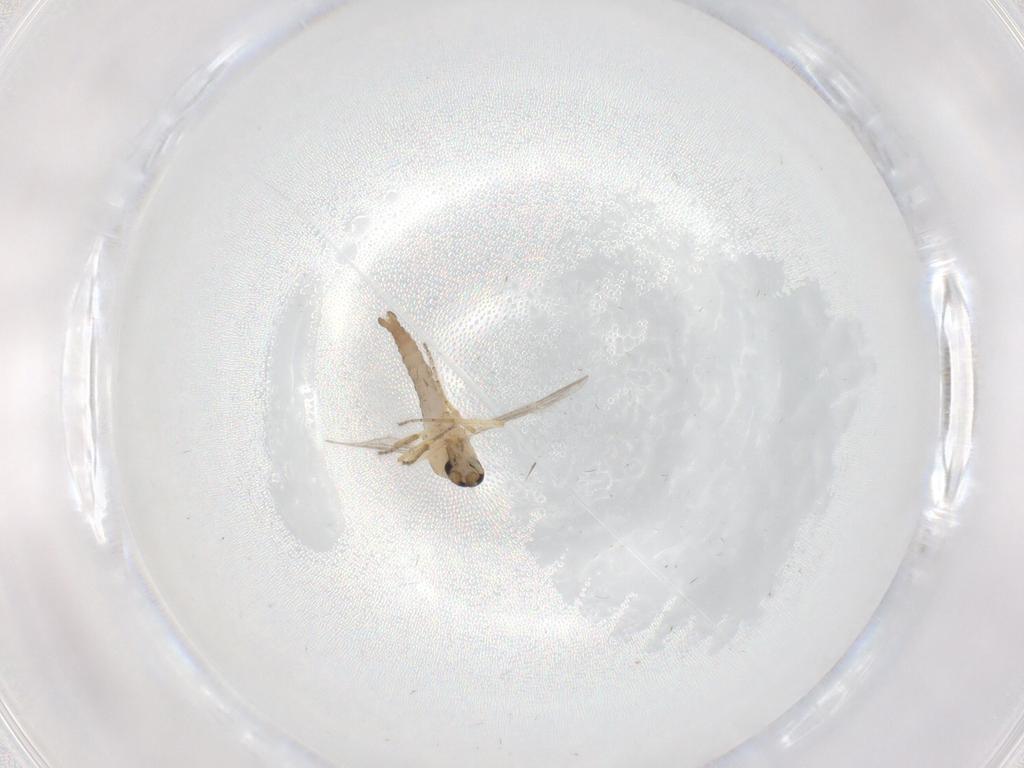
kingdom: Animalia
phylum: Arthropoda
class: Insecta
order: Diptera
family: Ceratopogonidae
